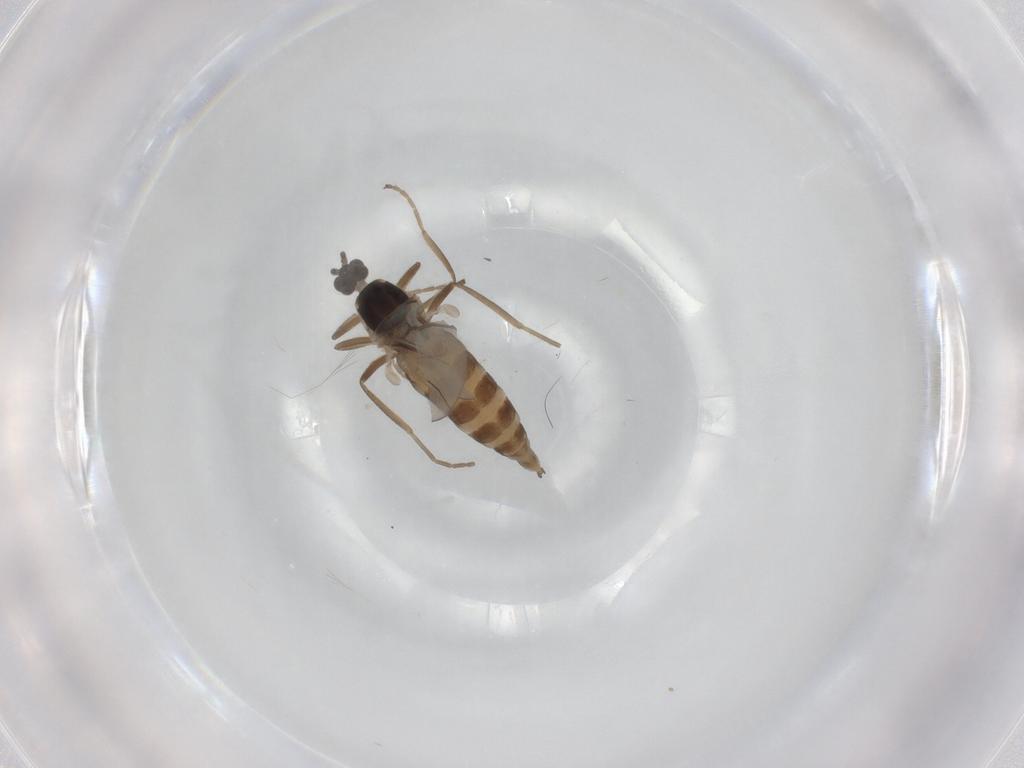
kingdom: Animalia
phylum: Arthropoda
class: Insecta
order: Diptera
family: Cecidomyiidae
